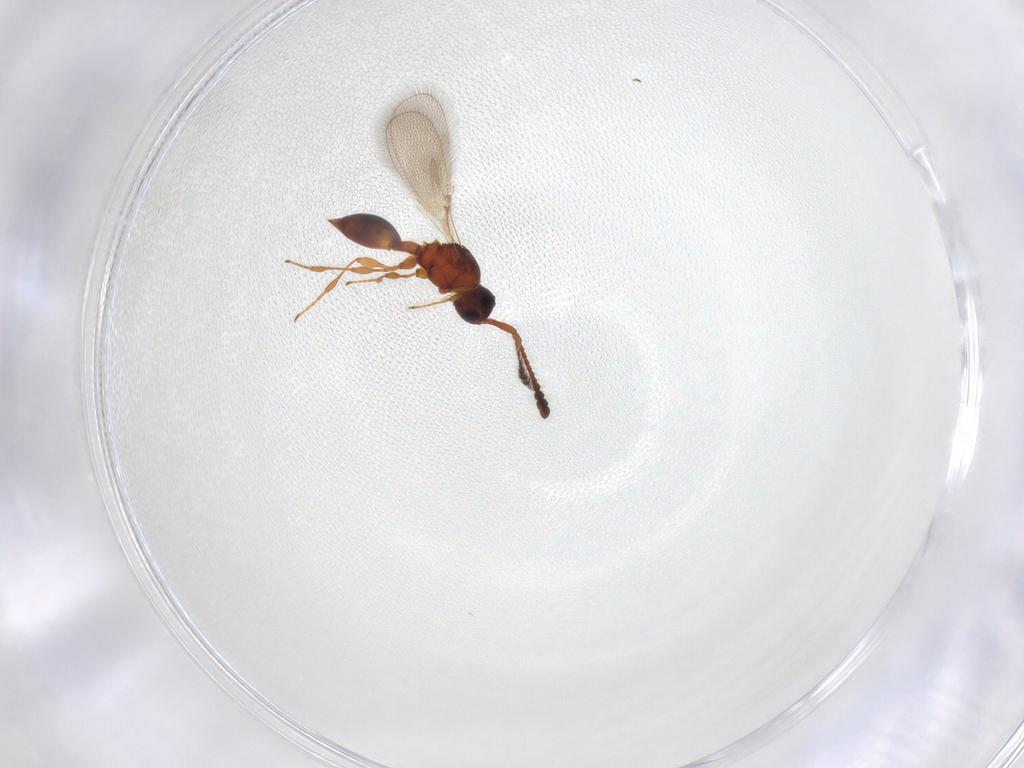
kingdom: Animalia
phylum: Arthropoda
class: Insecta
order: Hymenoptera
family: Diapriidae
